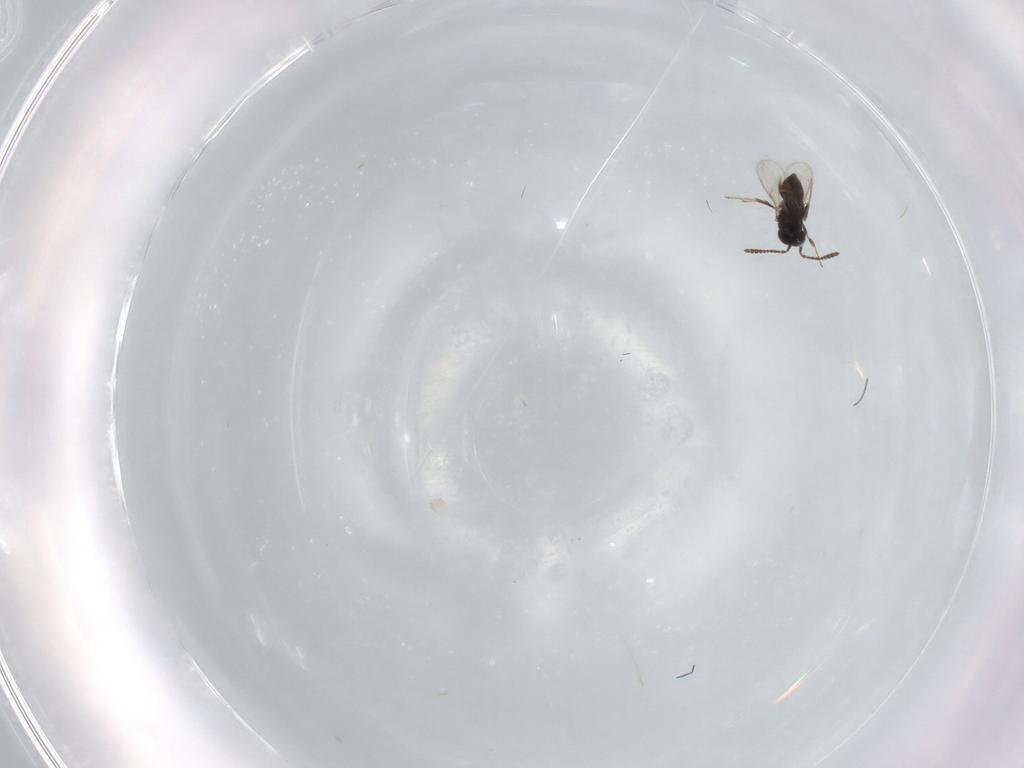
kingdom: Animalia
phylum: Arthropoda
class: Insecta
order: Hymenoptera
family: Scelionidae
